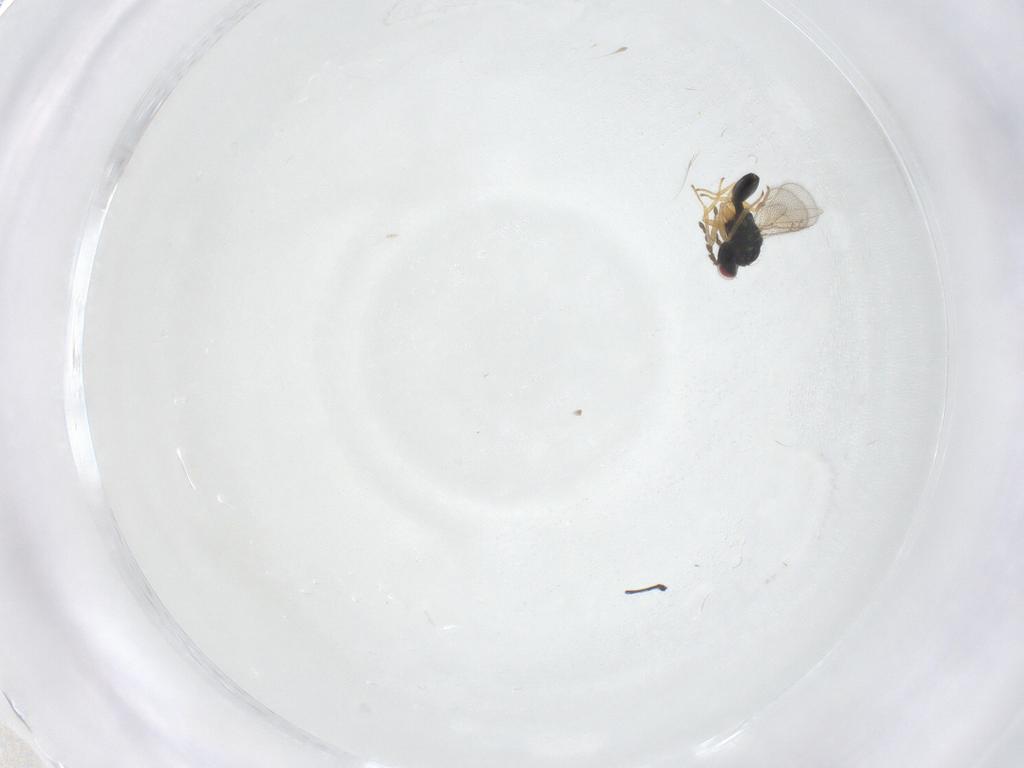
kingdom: Animalia
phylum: Arthropoda
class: Insecta
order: Hymenoptera
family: Eulophidae
